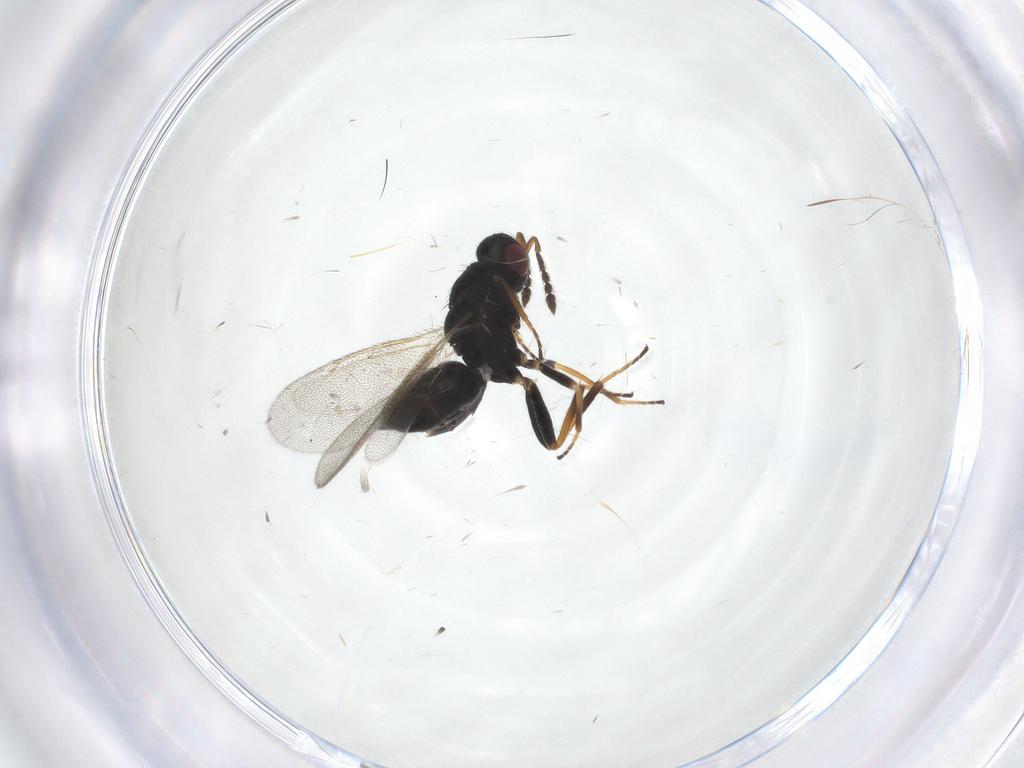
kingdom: Animalia
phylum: Arthropoda
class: Insecta
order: Hymenoptera
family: Eulophidae
